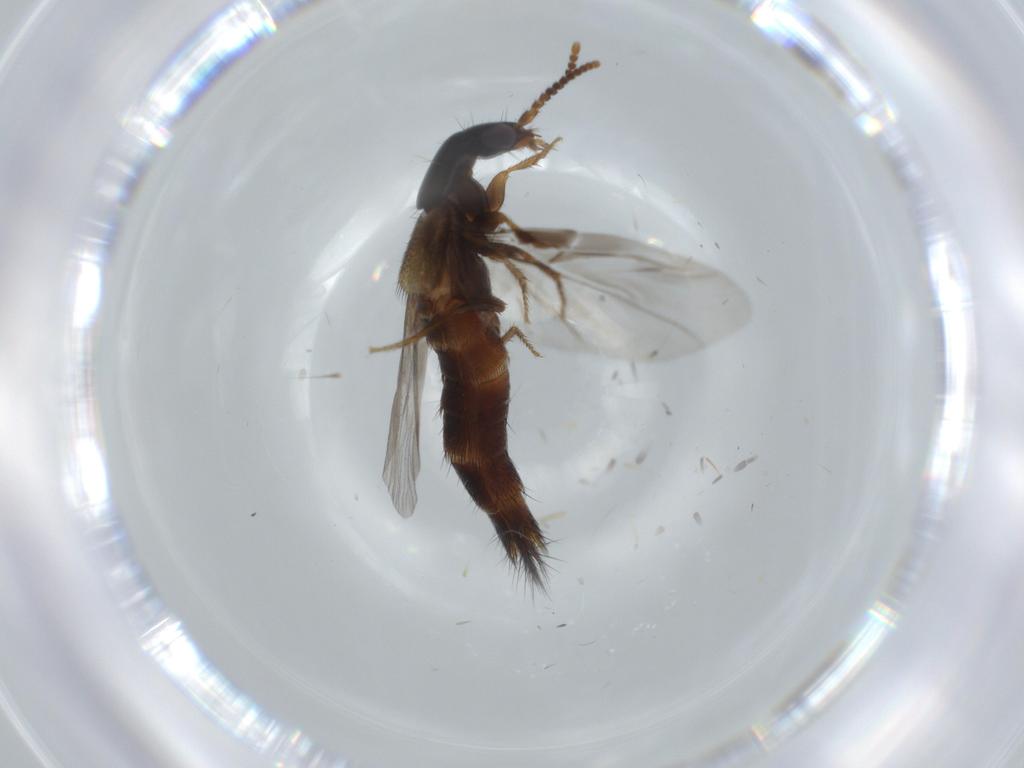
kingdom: Animalia
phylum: Arthropoda
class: Insecta
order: Coleoptera
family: Staphylinidae
